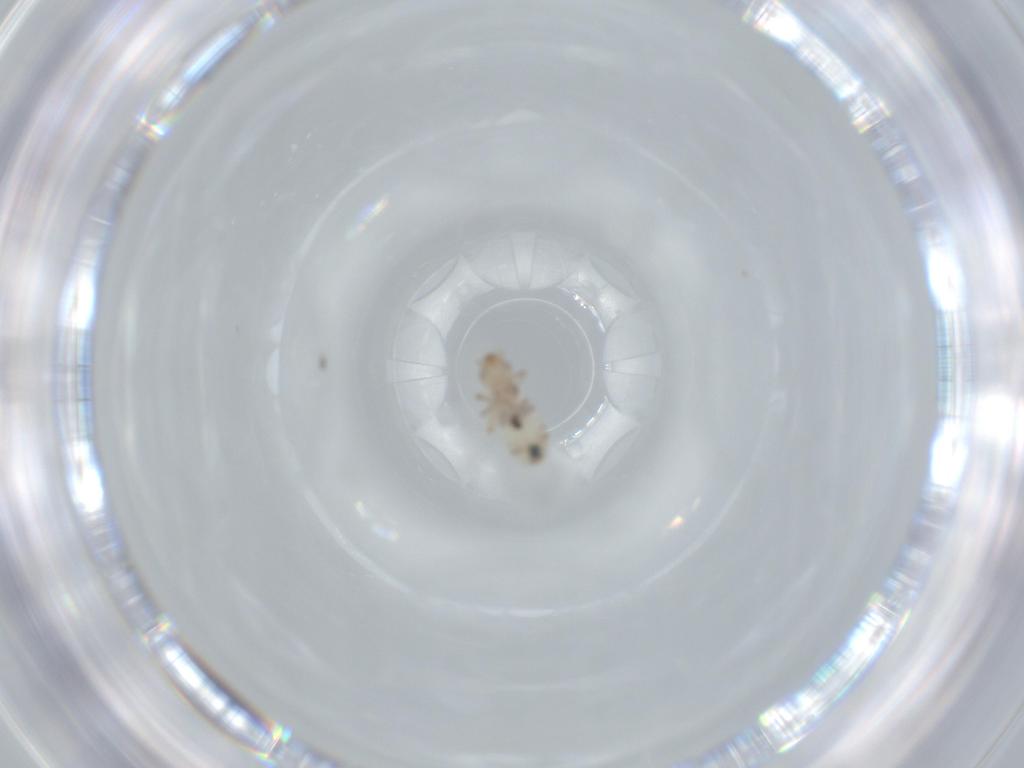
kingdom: Animalia
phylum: Arthropoda
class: Insecta
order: Psocodea
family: Liposcelididae
